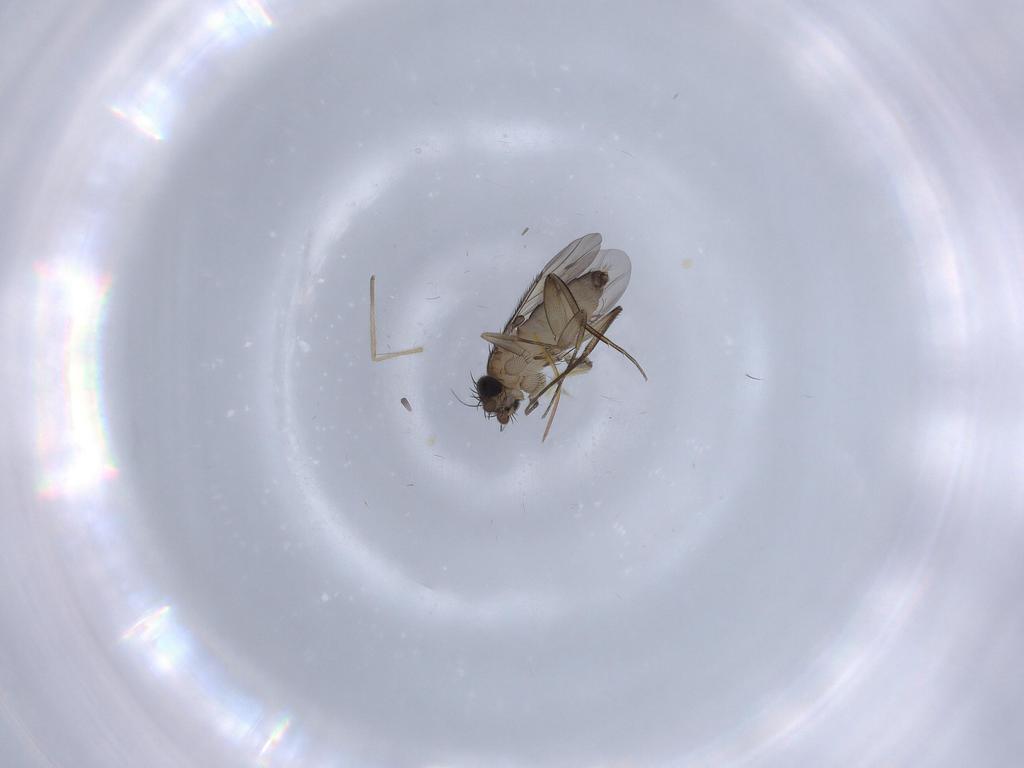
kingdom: Animalia
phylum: Arthropoda
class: Insecta
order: Diptera
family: Phoridae
